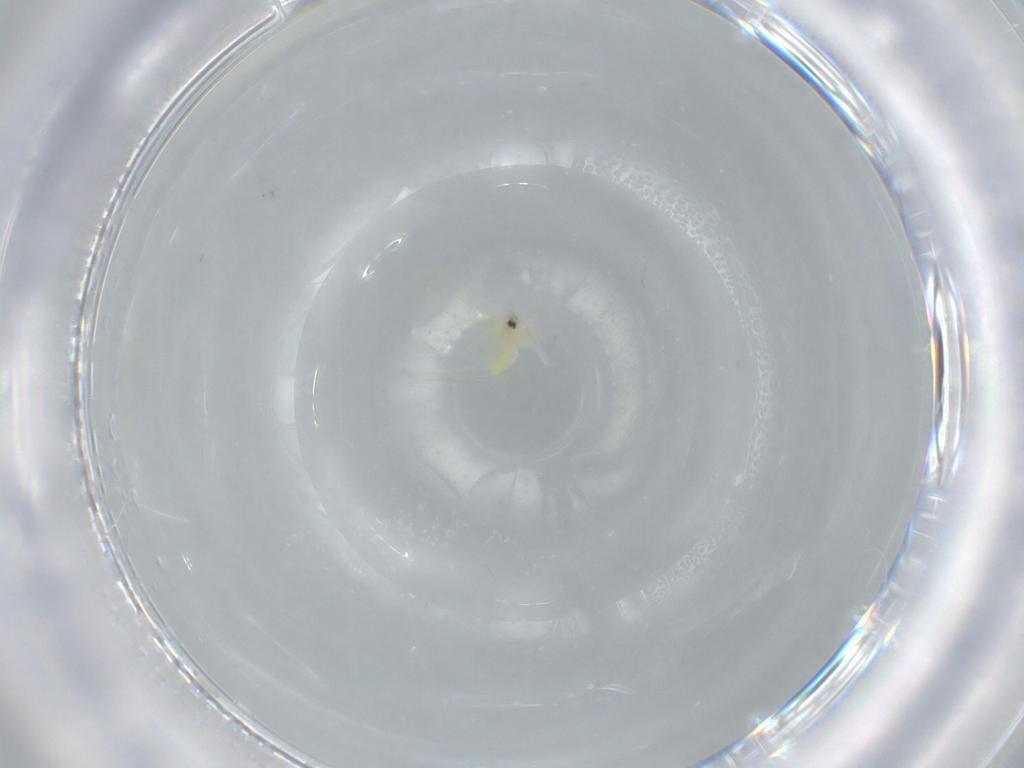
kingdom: Animalia
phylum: Arthropoda
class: Insecta
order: Hemiptera
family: Aleyrodidae
